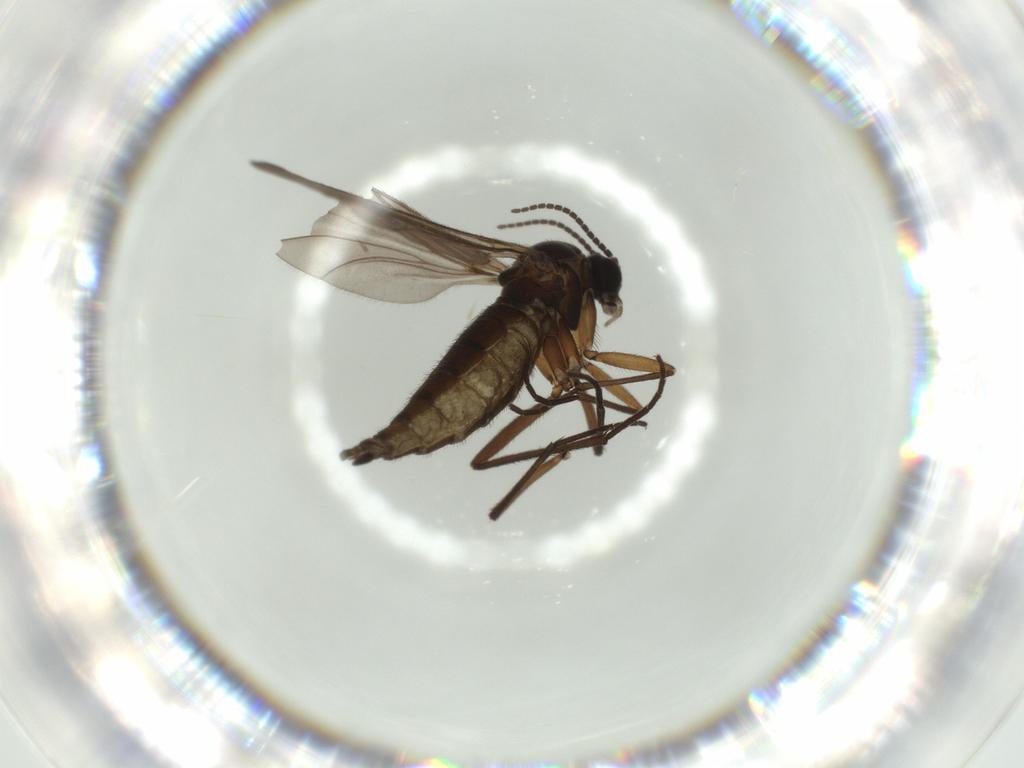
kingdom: Animalia
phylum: Arthropoda
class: Insecta
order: Diptera
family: Sciaridae
